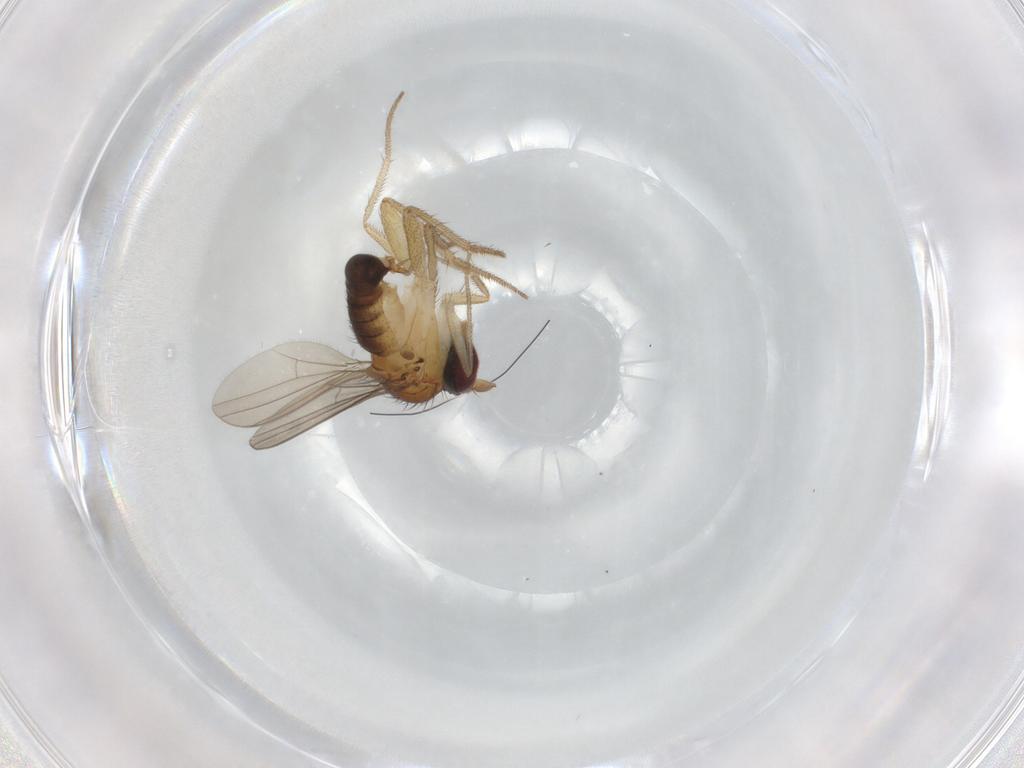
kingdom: Animalia
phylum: Arthropoda
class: Insecta
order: Diptera
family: Dolichopodidae
